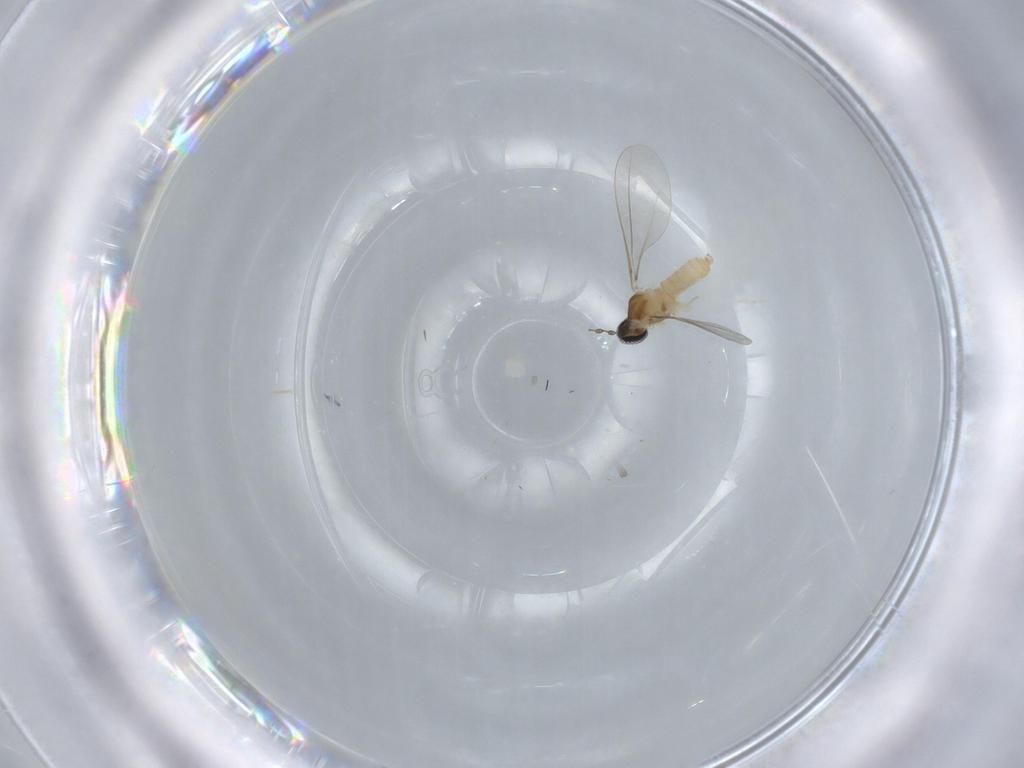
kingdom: Animalia
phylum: Arthropoda
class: Insecta
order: Diptera
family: Cecidomyiidae
